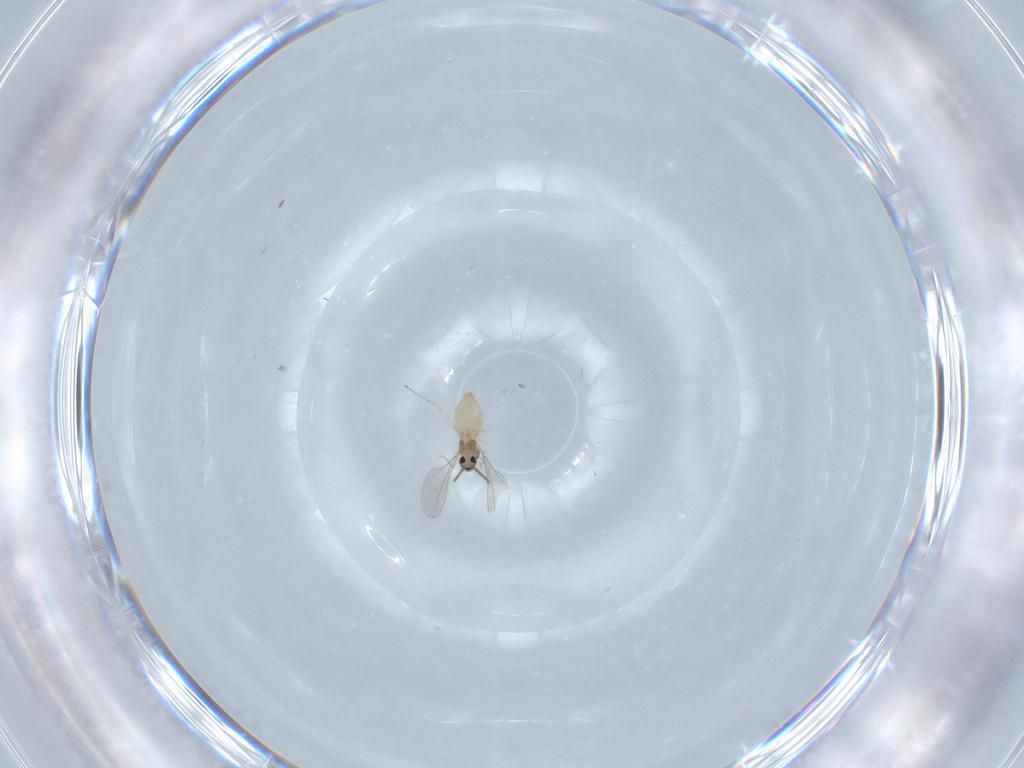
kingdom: Animalia
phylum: Arthropoda
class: Insecta
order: Diptera
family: Cecidomyiidae
